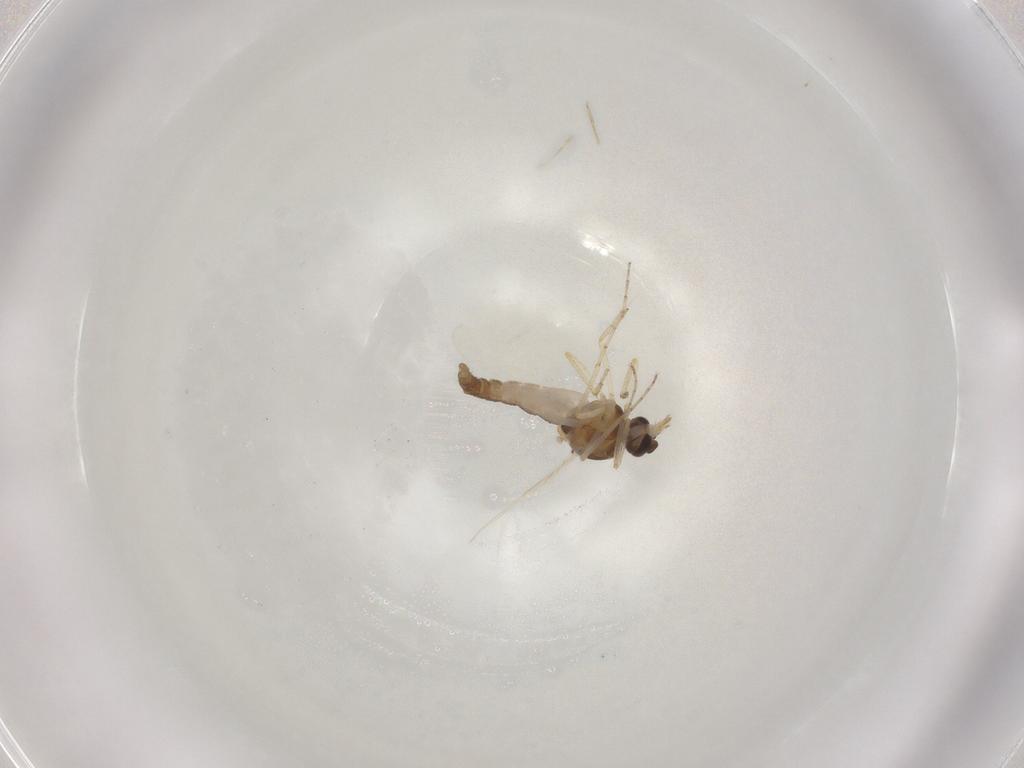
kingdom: Animalia
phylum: Arthropoda
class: Insecta
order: Diptera
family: Ceratopogonidae
